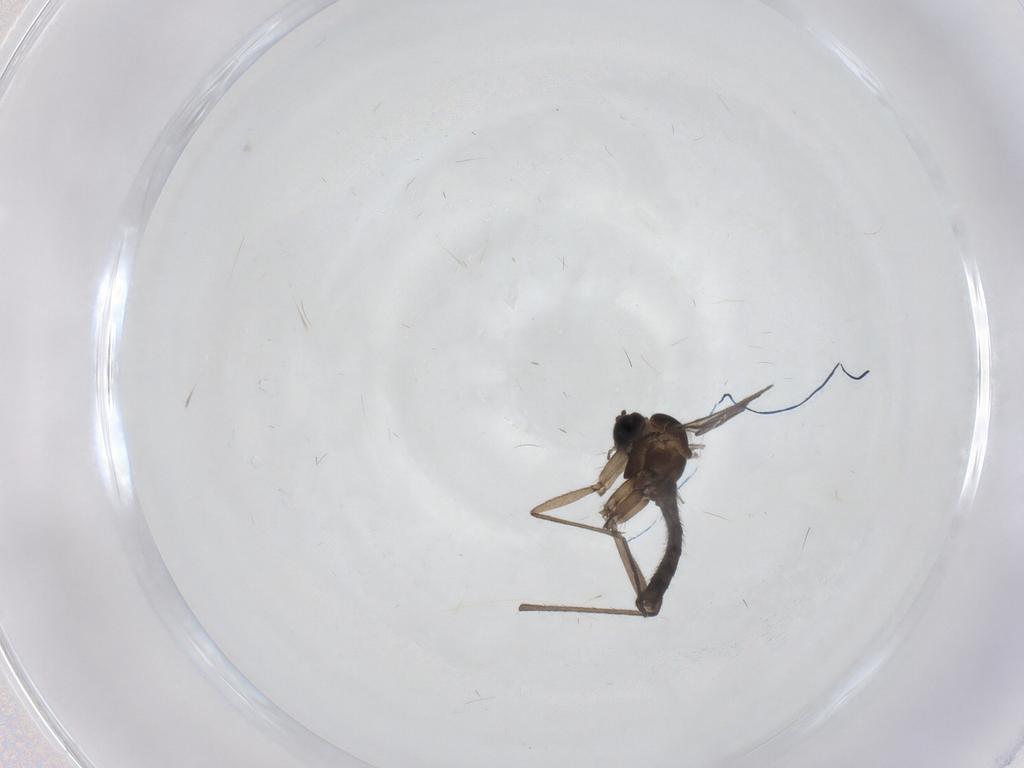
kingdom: Animalia
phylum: Arthropoda
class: Insecta
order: Diptera
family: Sciaridae
